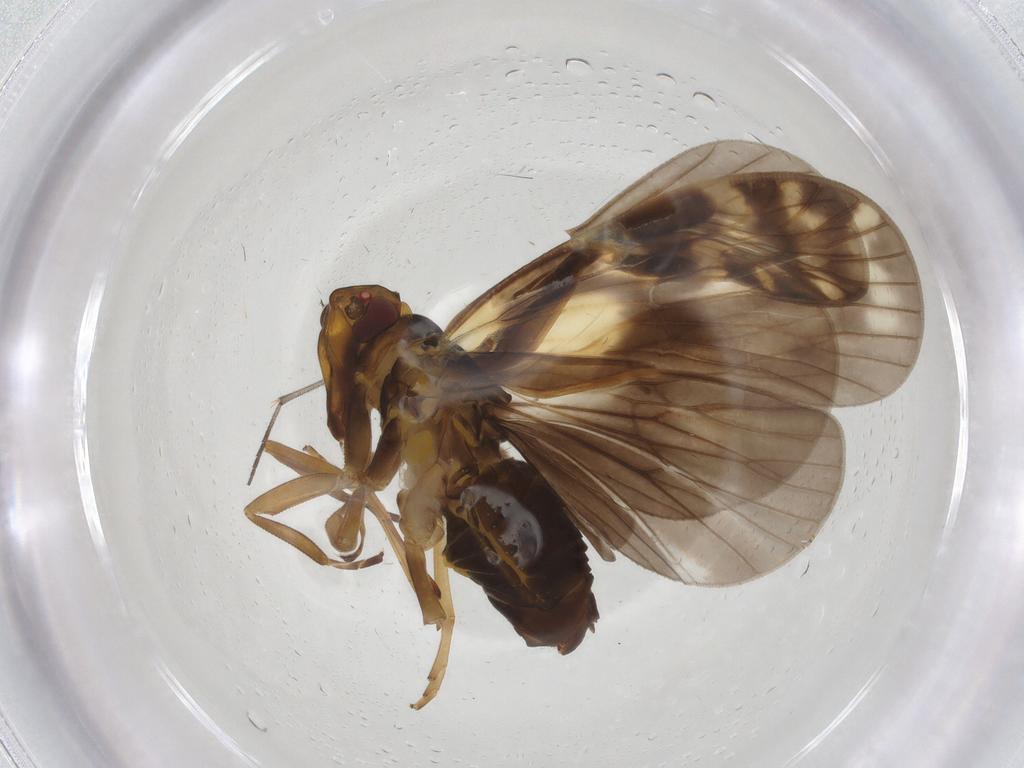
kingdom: Animalia
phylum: Arthropoda
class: Insecta
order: Hemiptera
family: Cixiidae
